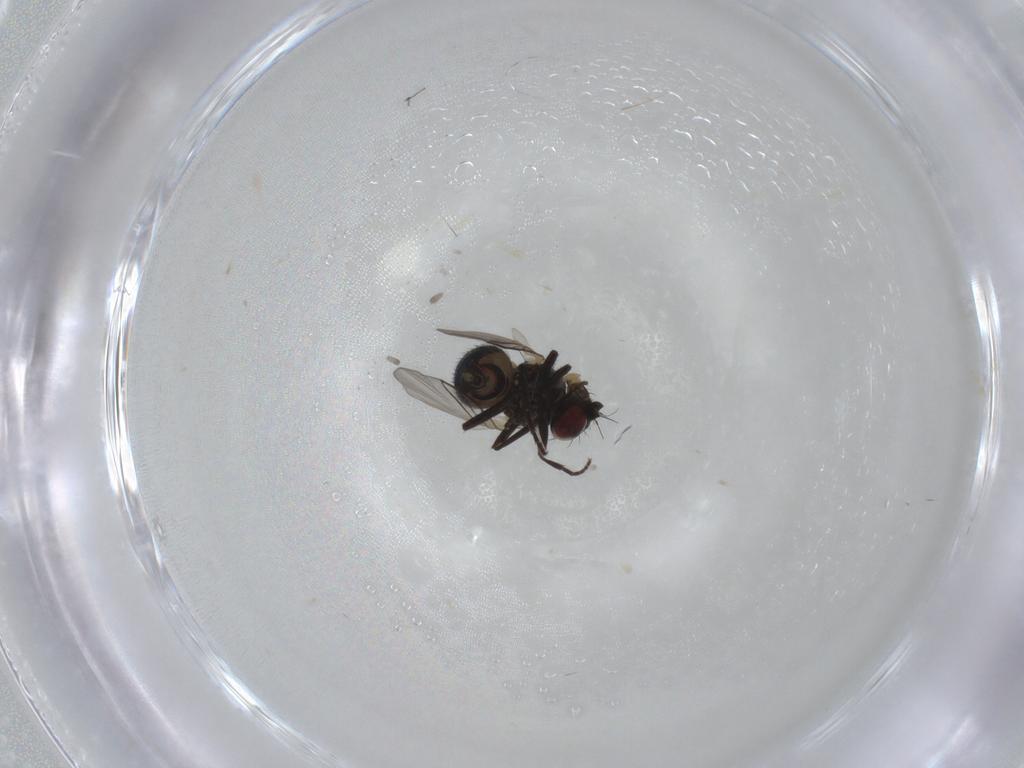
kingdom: Animalia
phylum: Arthropoda
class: Insecta
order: Diptera
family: Agromyzidae
